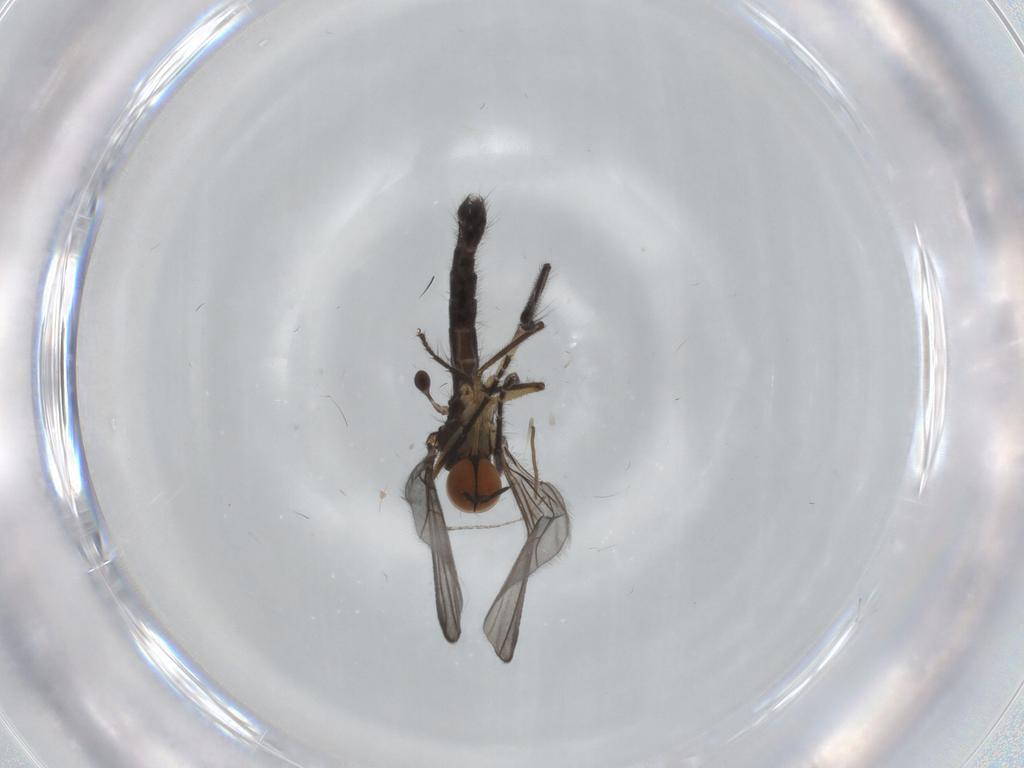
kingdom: Animalia
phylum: Arthropoda
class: Insecta
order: Diptera
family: Empididae
